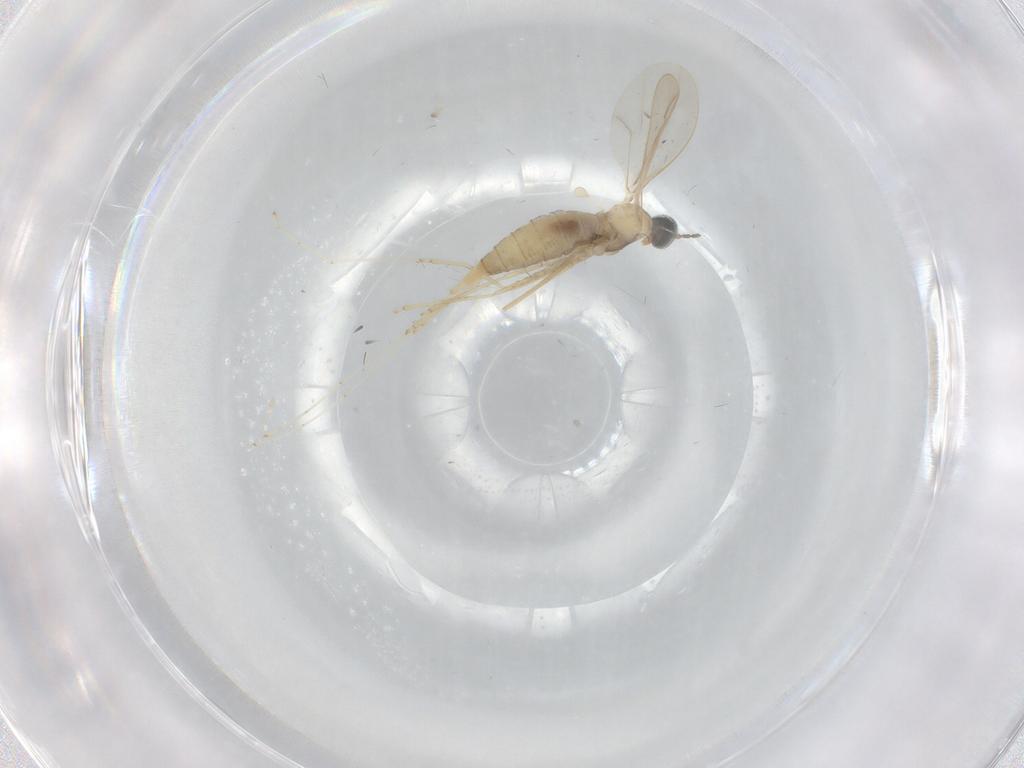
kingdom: Animalia
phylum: Arthropoda
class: Insecta
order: Diptera
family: Cecidomyiidae
